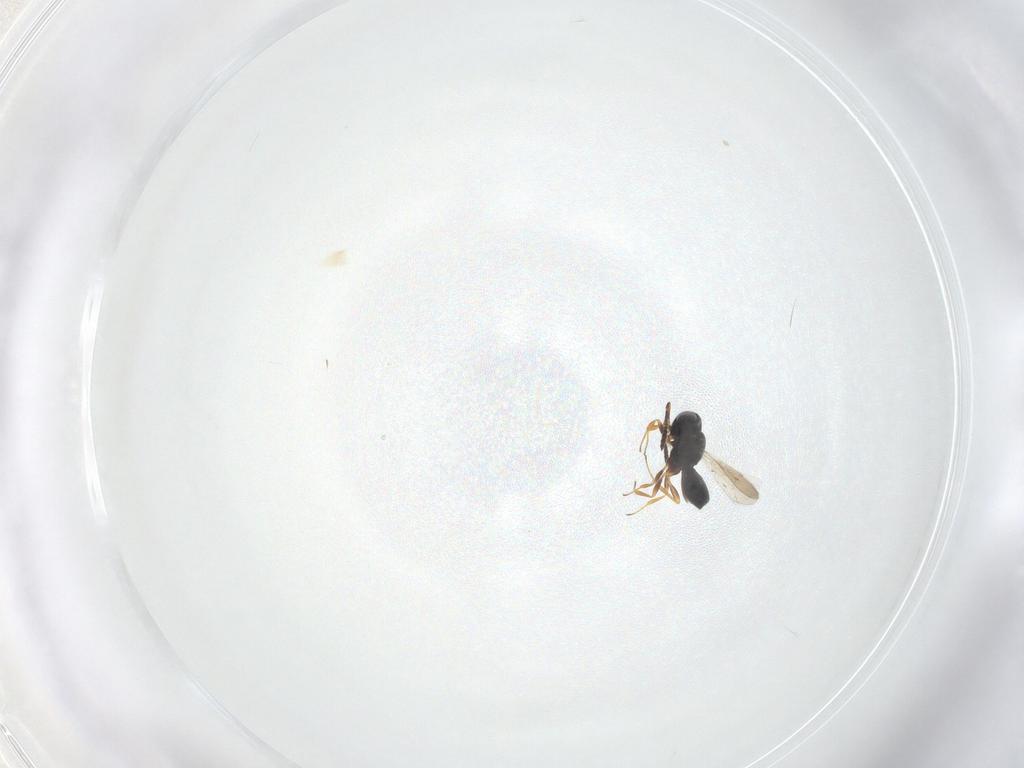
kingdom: Animalia
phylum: Arthropoda
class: Insecta
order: Hymenoptera
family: Scelionidae
